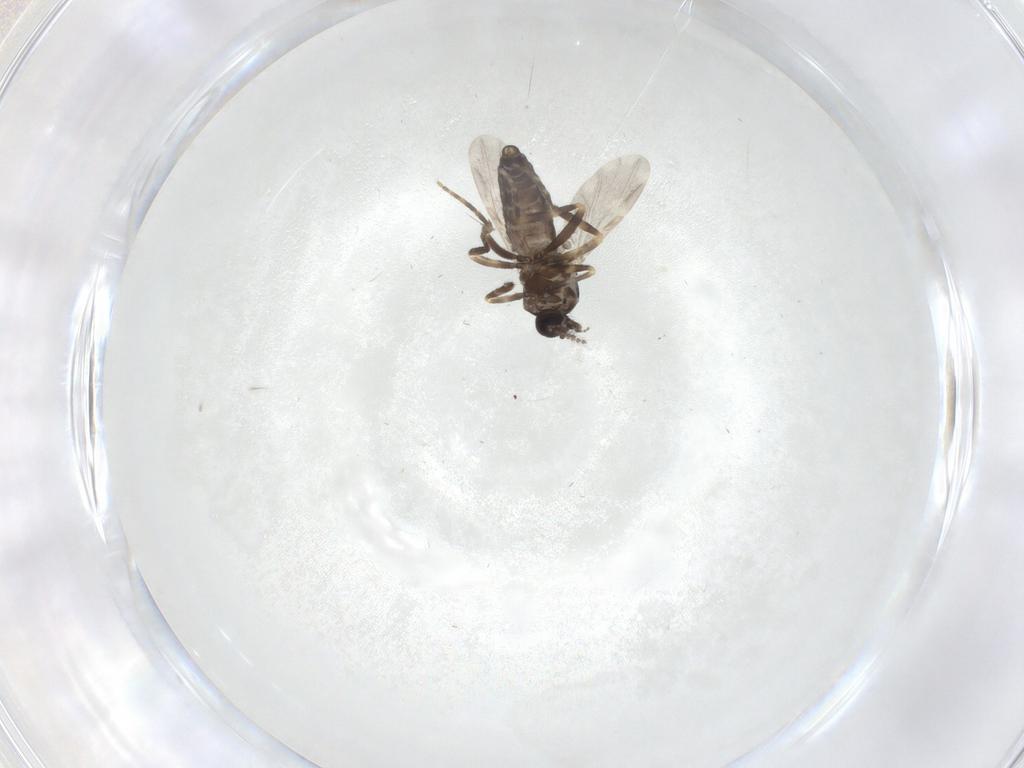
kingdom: Animalia
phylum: Arthropoda
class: Insecta
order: Diptera
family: Ceratopogonidae
